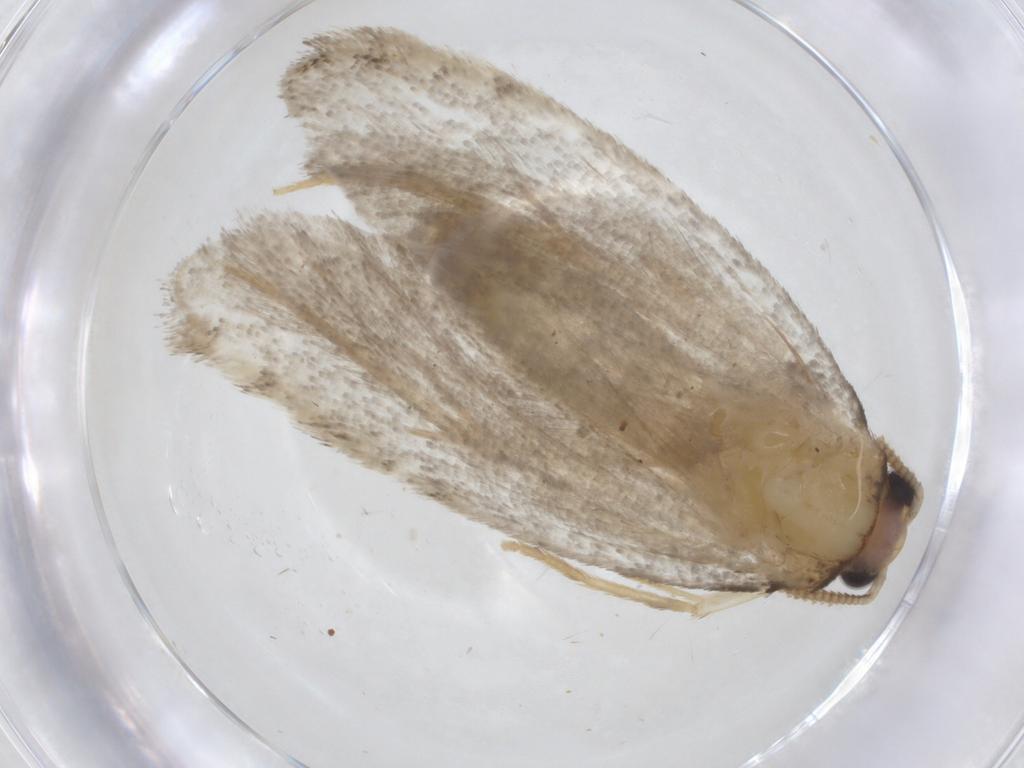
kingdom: Animalia
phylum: Arthropoda
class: Insecta
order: Lepidoptera
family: Tineidae
